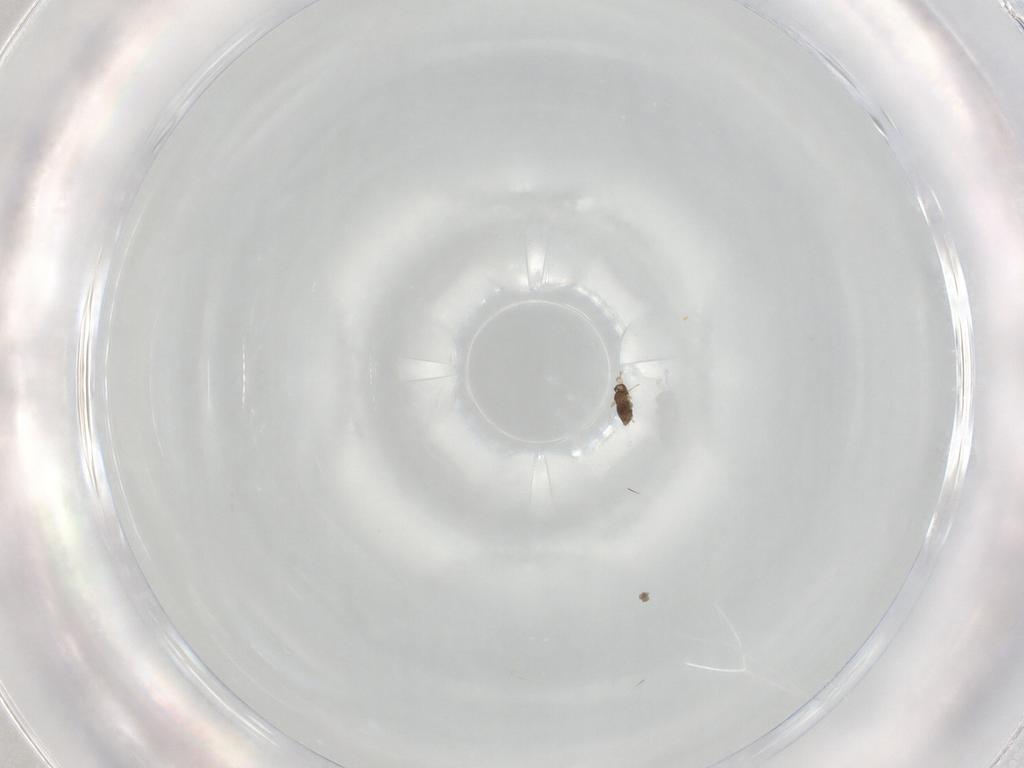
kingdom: Animalia
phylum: Arthropoda
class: Insecta
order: Hymenoptera
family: Mymaridae
